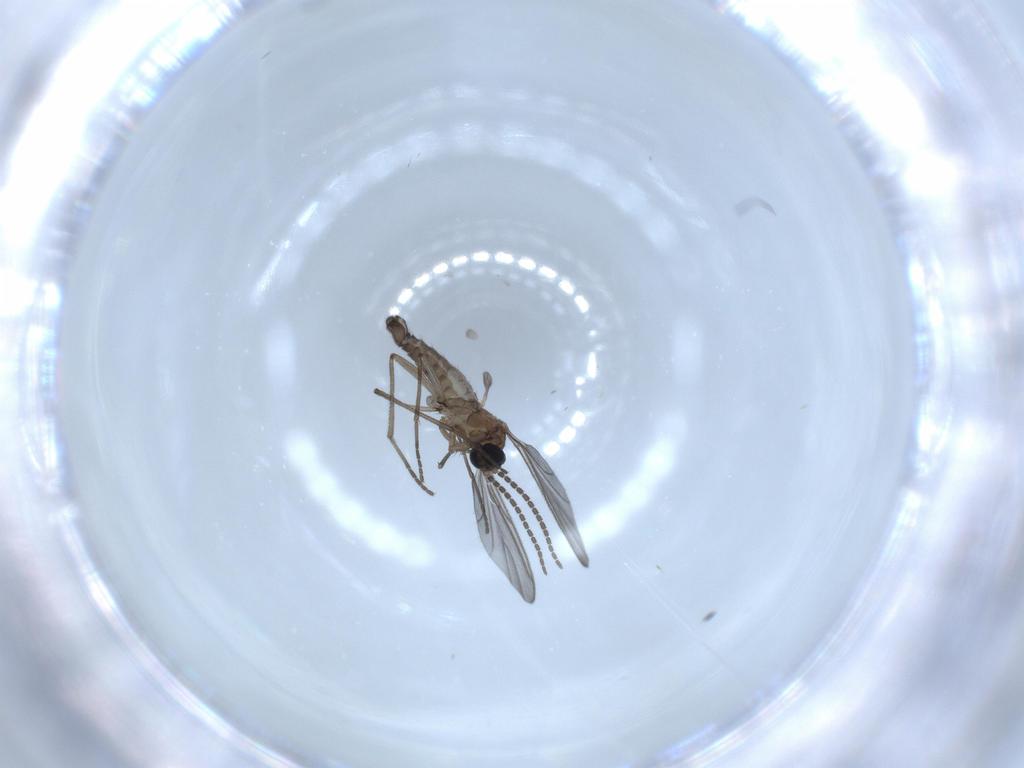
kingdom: Animalia
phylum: Arthropoda
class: Insecta
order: Diptera
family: Sciaridae
